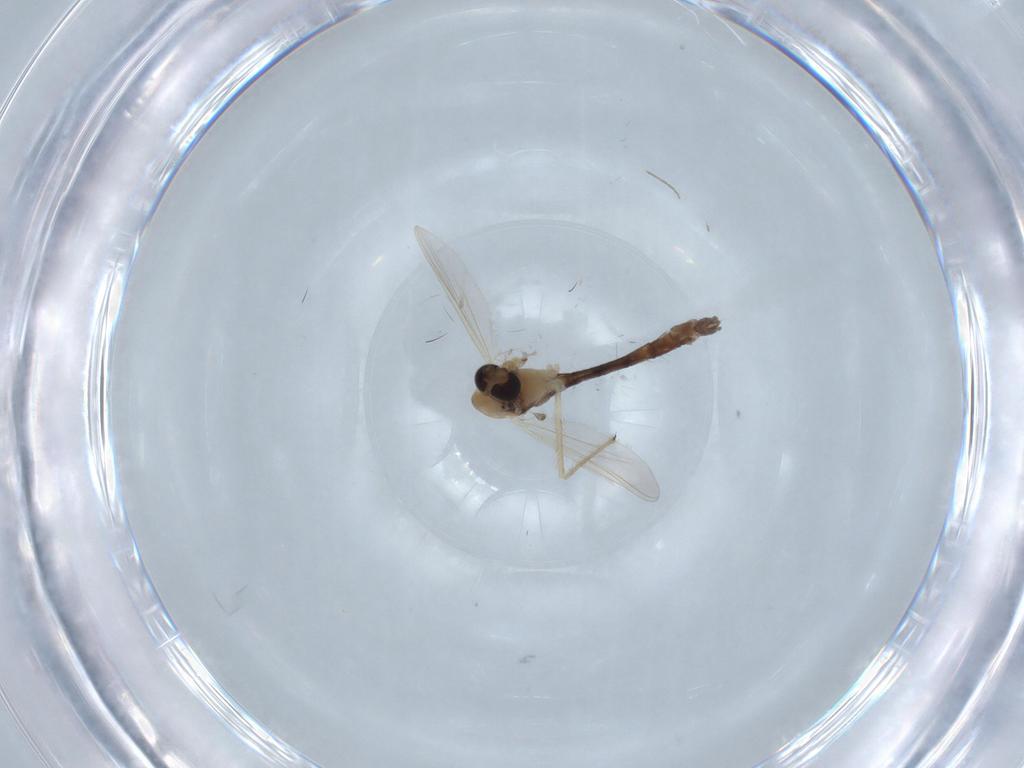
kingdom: Animalia
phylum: Arthropoda
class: Insecta
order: Diptera
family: Chironomidae
